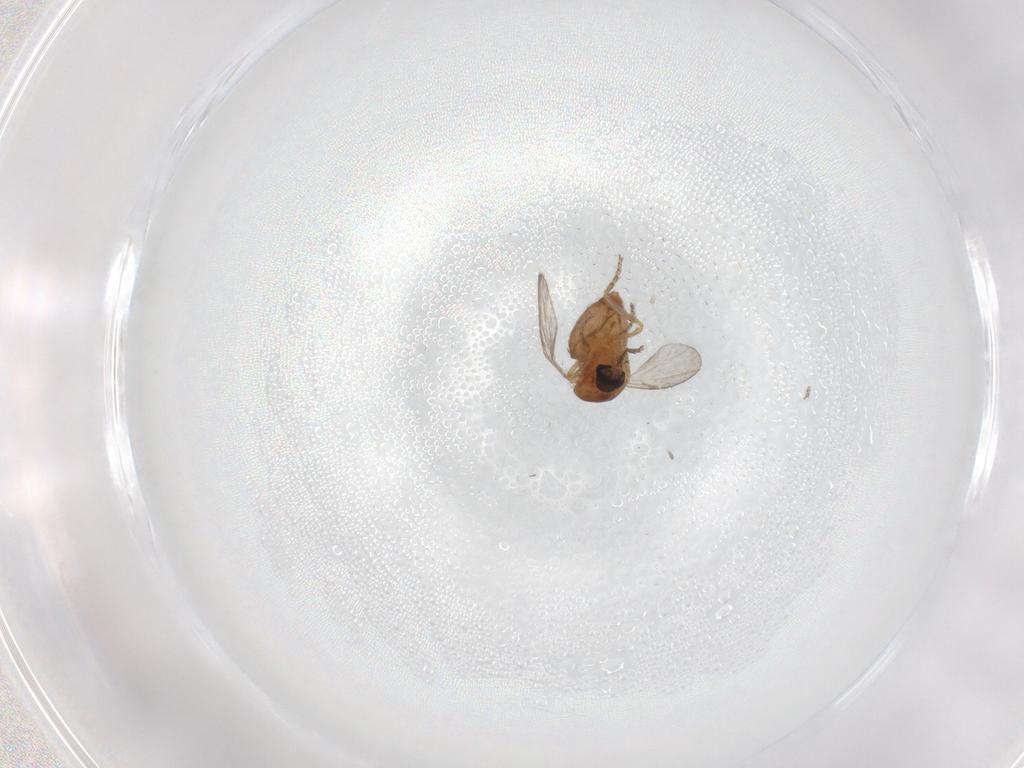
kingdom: Animalia
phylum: Arthropoda
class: Insecta
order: Diptera
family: Ceratopogonidae
